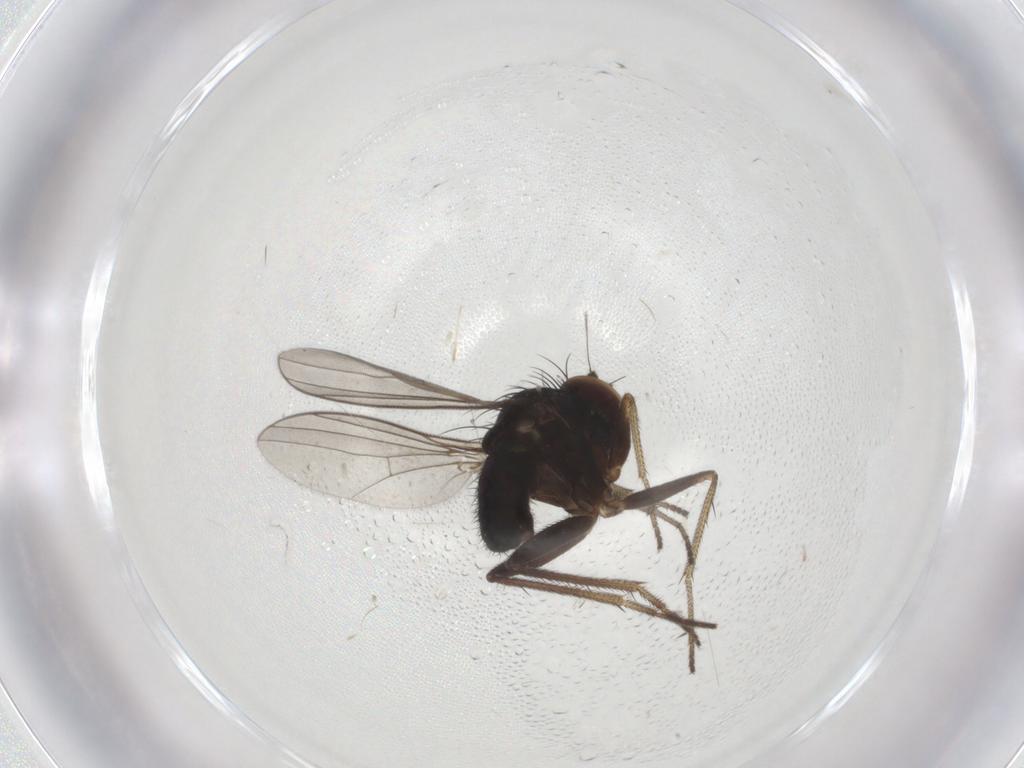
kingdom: Animalia
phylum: Arthropoda
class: Insecta
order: Diptera
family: Dolichopodidae
